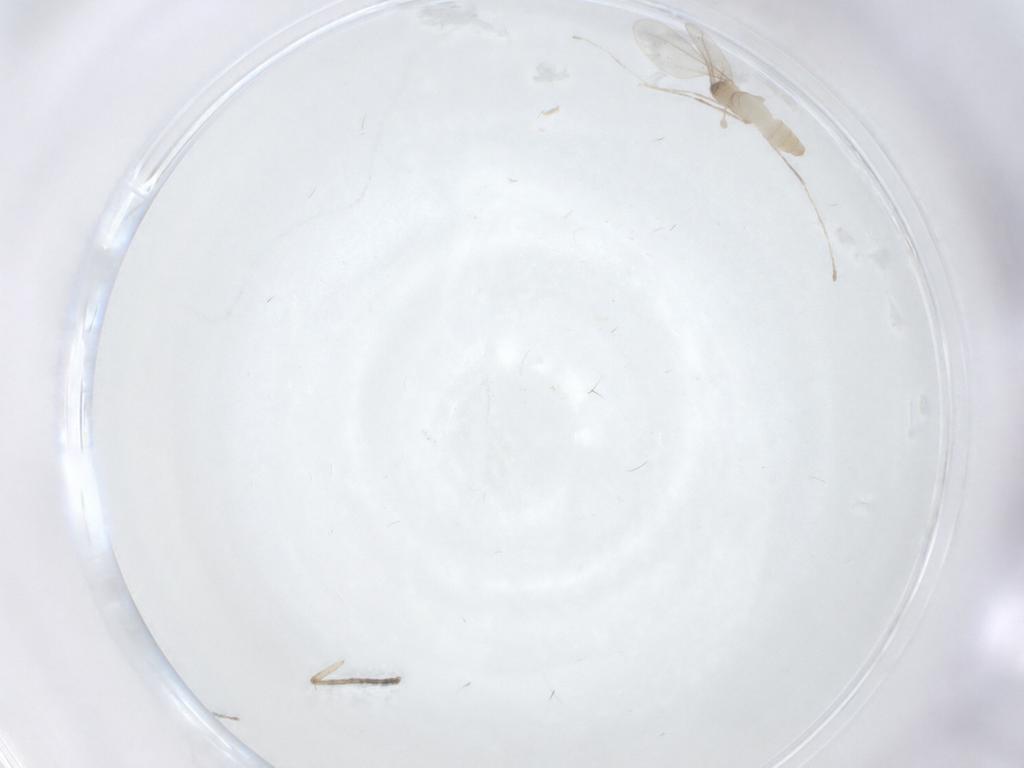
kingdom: Animalia
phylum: Arthropoda
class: Insecta
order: Diptera
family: Cecidomyiidae
